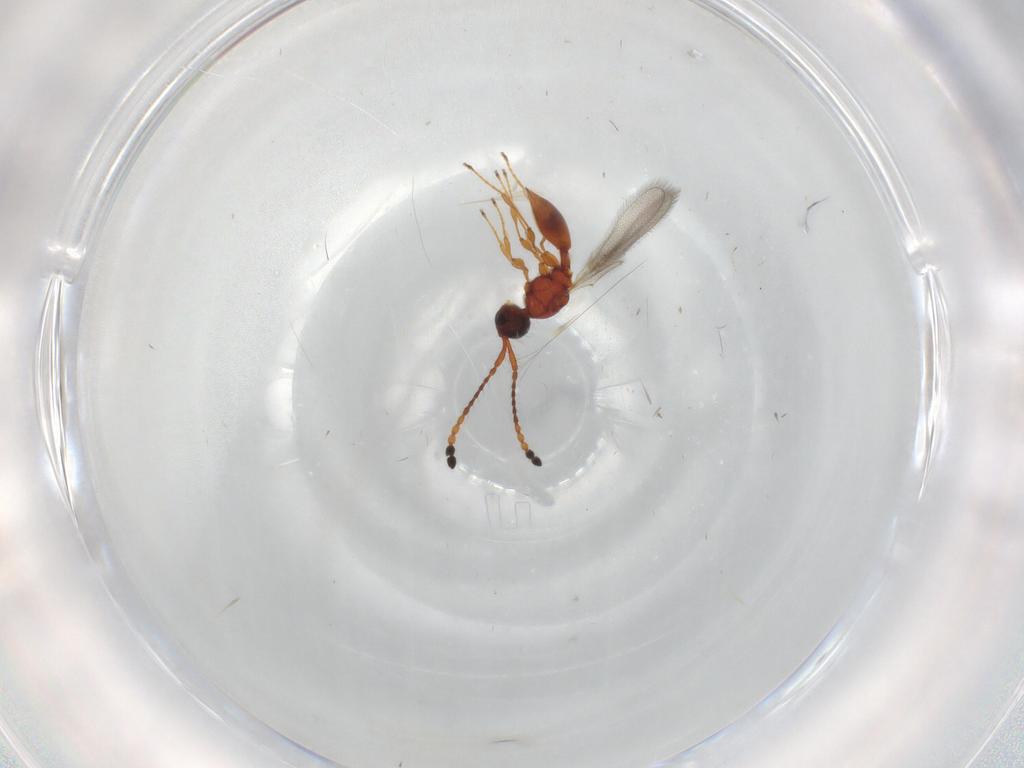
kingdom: Animalia
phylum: Arthropoda
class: Insecta
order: Hymenoptera
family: Diapriidae
